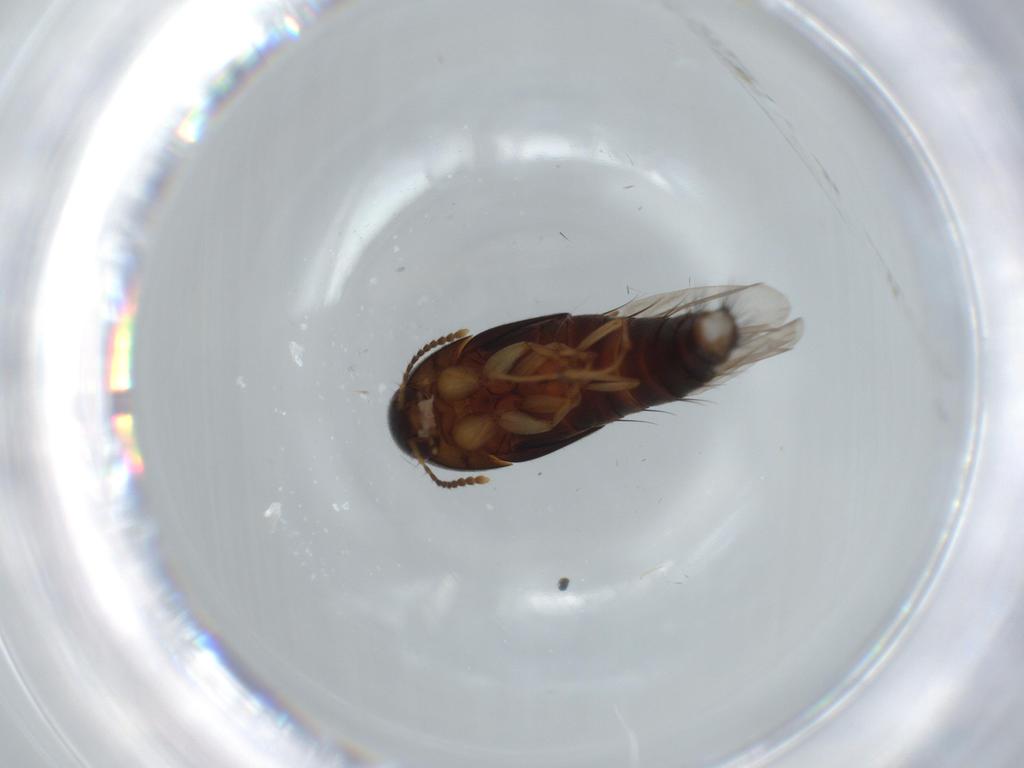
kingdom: Animalia
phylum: Arthropoda
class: Insecta
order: Coleoptera
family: Staphylinidae
